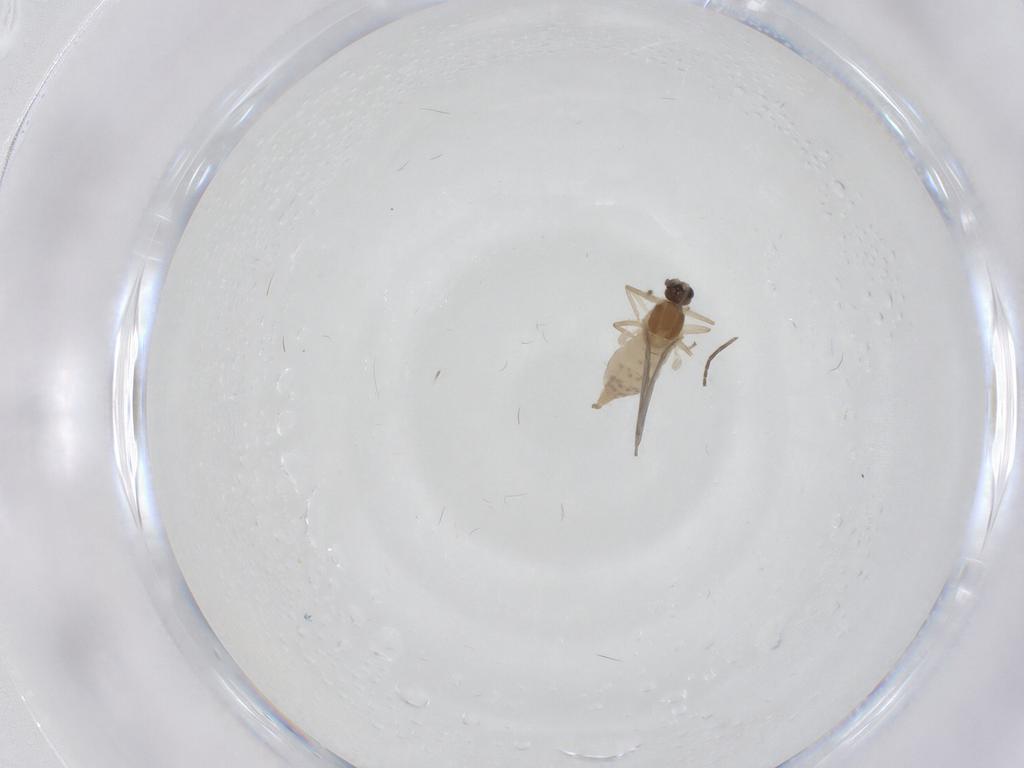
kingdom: Animalia
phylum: Arthropoda
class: Insecta
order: Diptera
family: Cecidomyiidae
